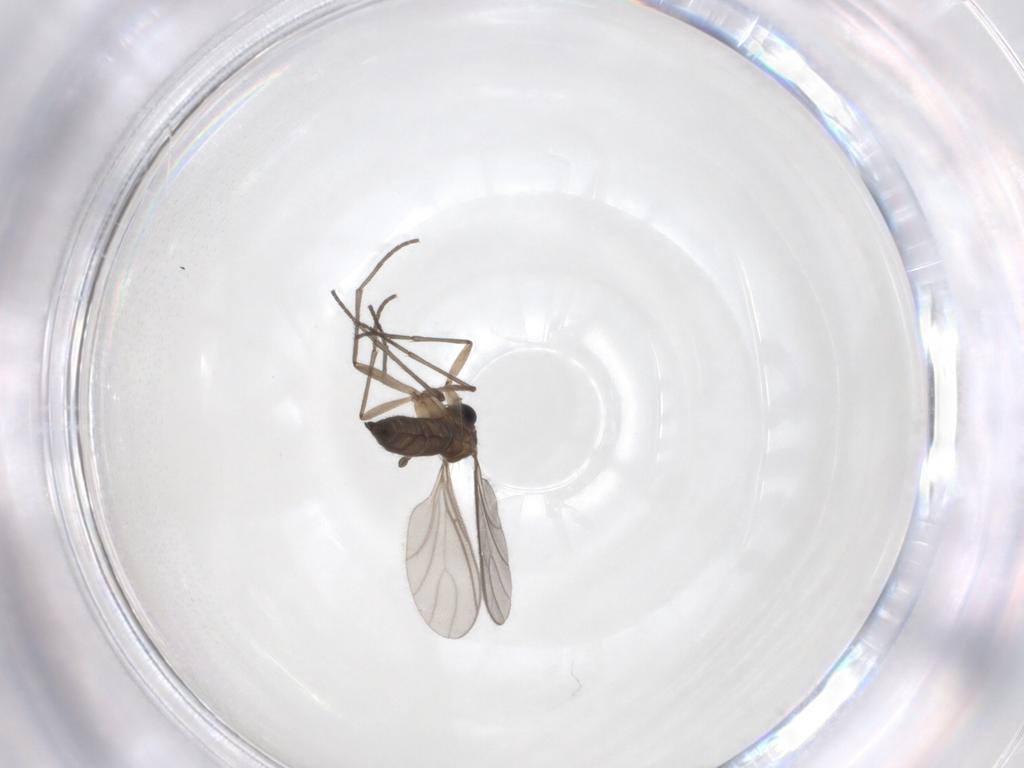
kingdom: Animalia
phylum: Arthropoda
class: Insecta
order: Diptera
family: Sciaridae
